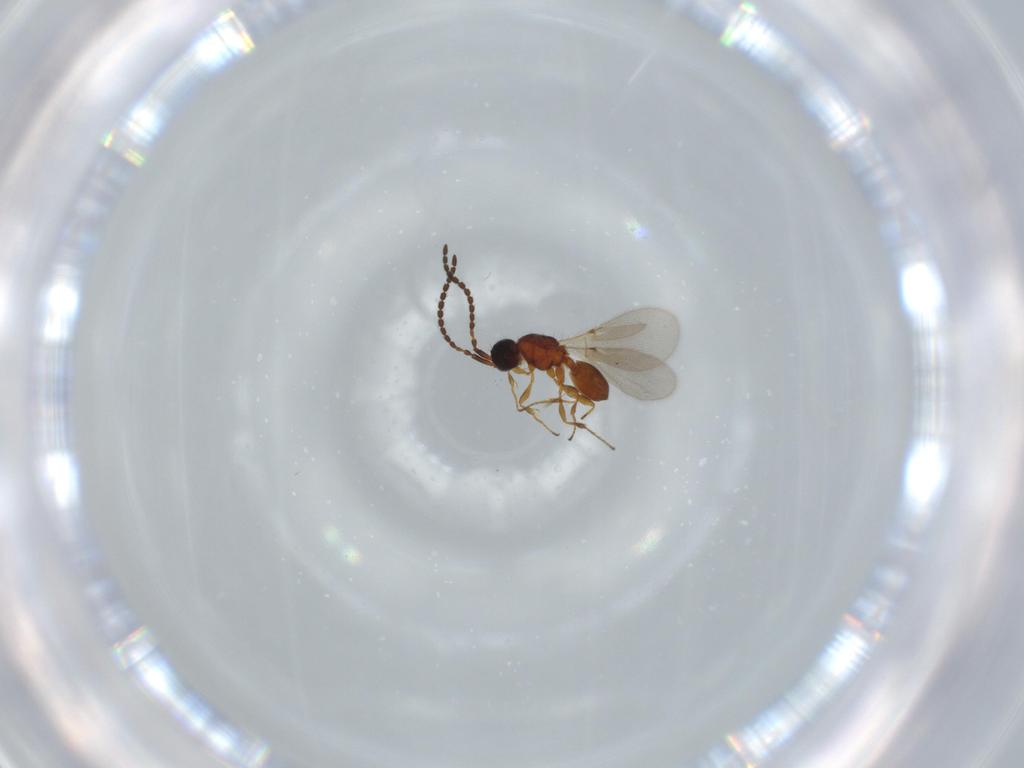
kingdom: Animalia
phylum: Arthropoda
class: Insecta
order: Hymenoptera
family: Diapriidae
